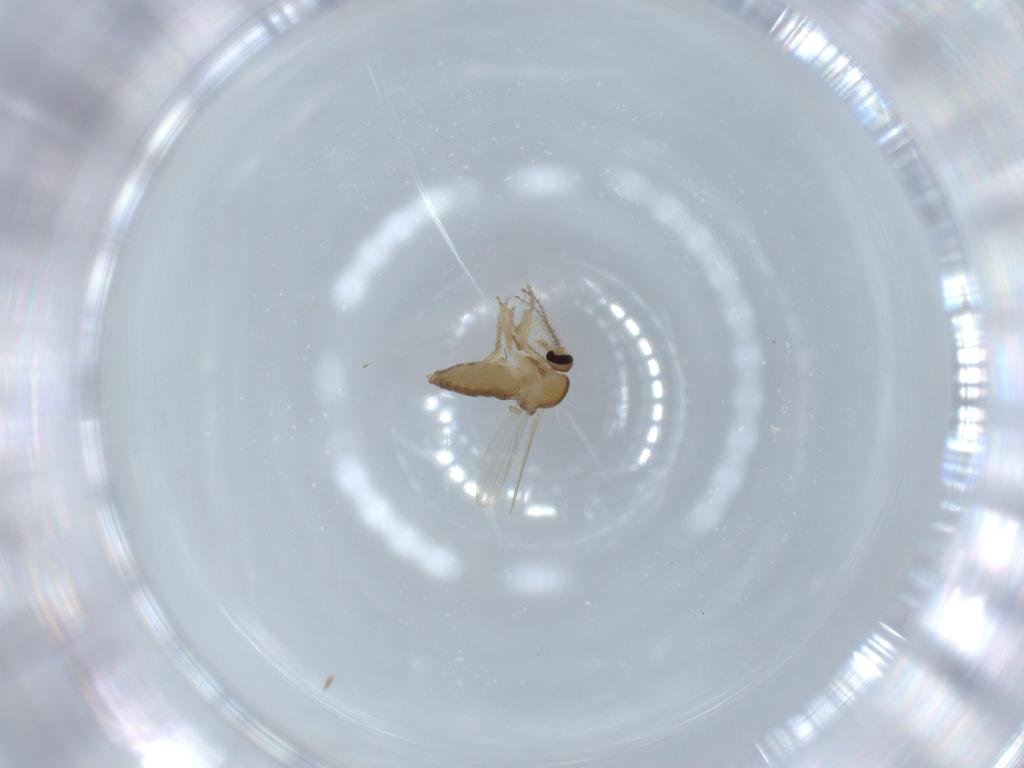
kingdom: Animalia
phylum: Arthropoda
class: Insecta
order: Diptera
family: Ceratopogonidae
